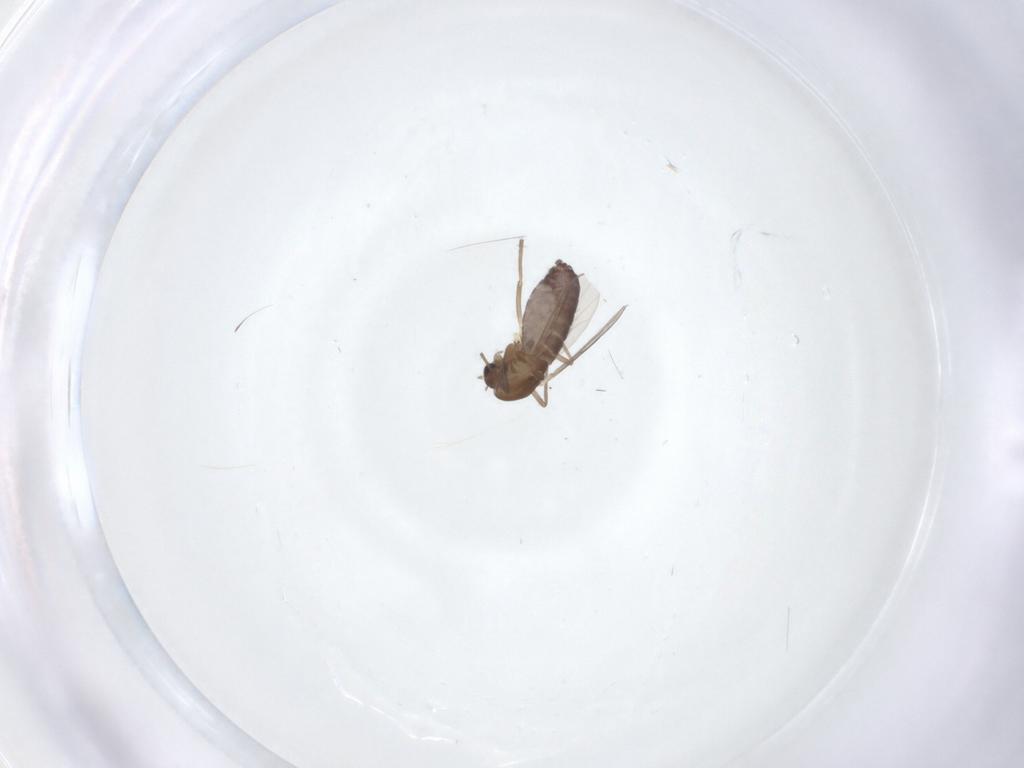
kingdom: Animalia
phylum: Arthropoda
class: Insecta
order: Diptera
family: Chironomidae
